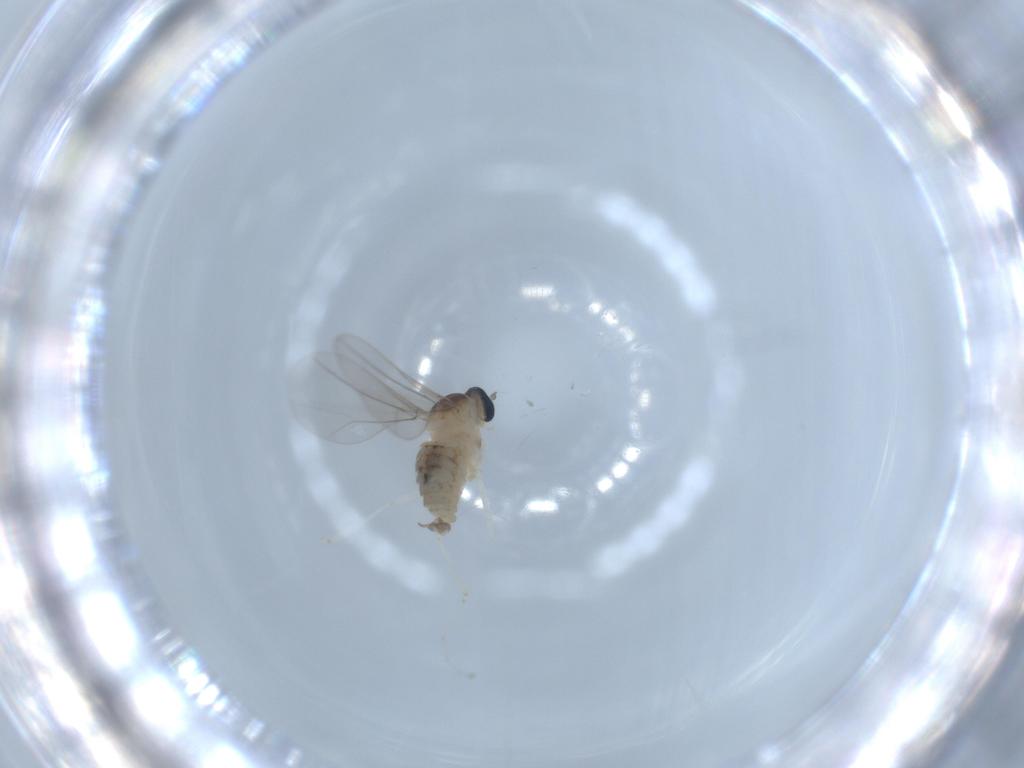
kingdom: Animalia
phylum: Arthropoda
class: Insecta
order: Diptera
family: Cecidomyiidae
